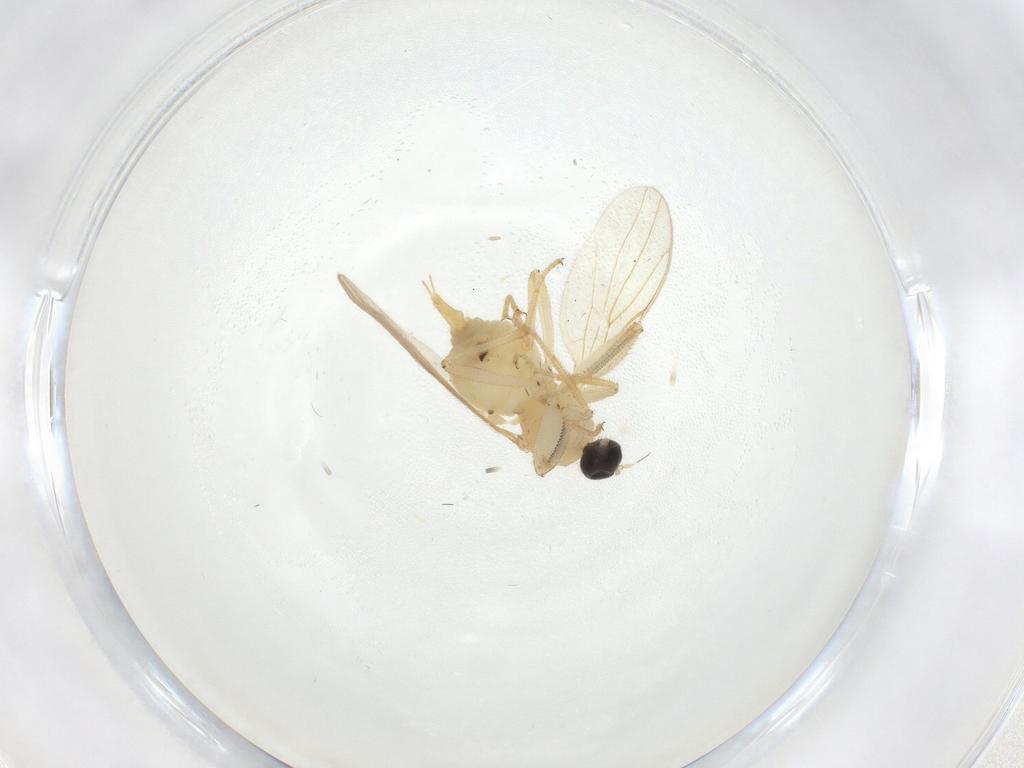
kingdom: Animalia
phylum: Arthropoda
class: Insecta
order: Diptera
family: Hybotidae
